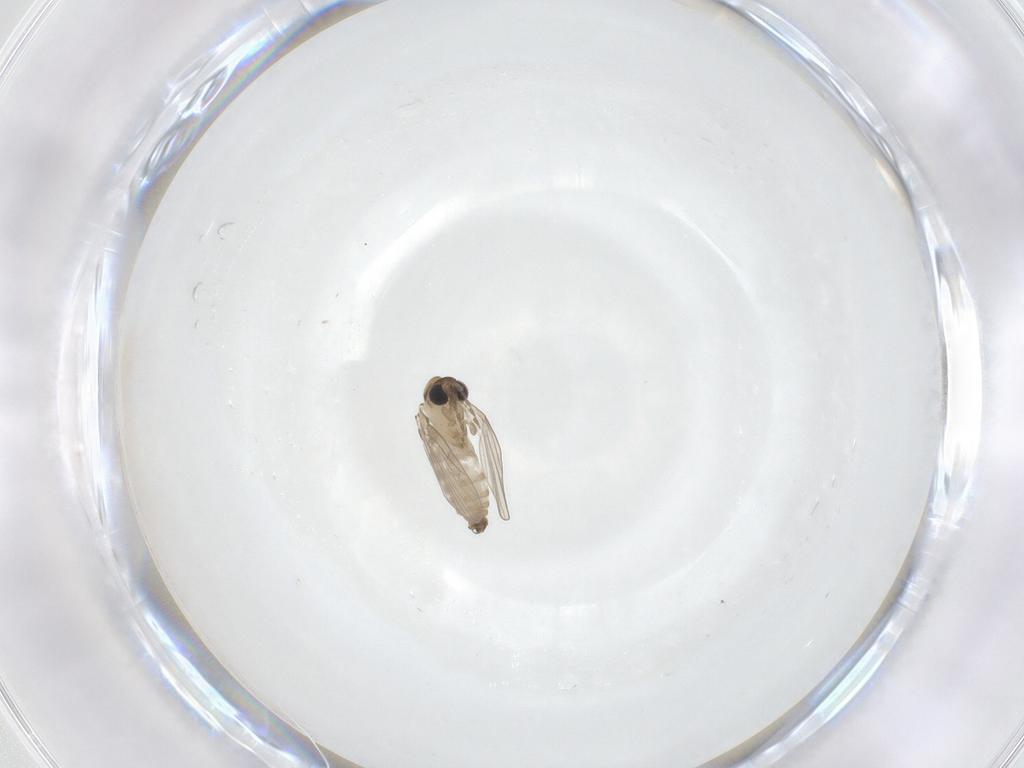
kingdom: Animalia
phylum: Arthropoda
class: Insecta
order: Diptera
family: Psychodidae
